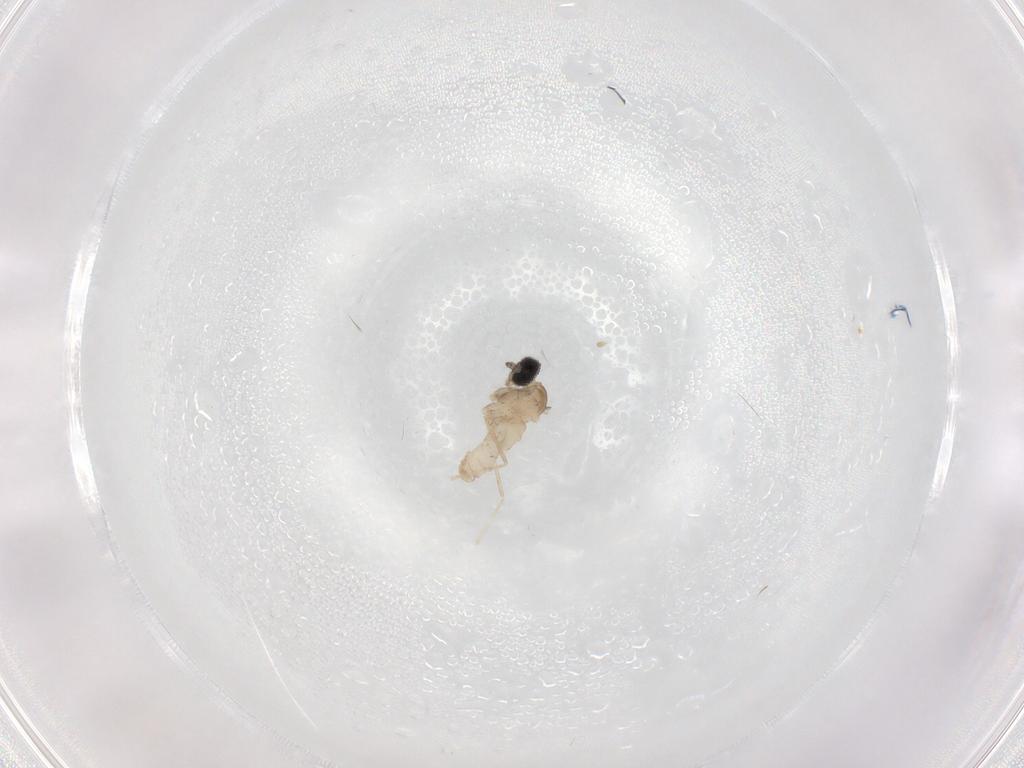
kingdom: Animalia
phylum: Arthropoda
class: Insecta
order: Diptera
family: Cecidomyiidae
